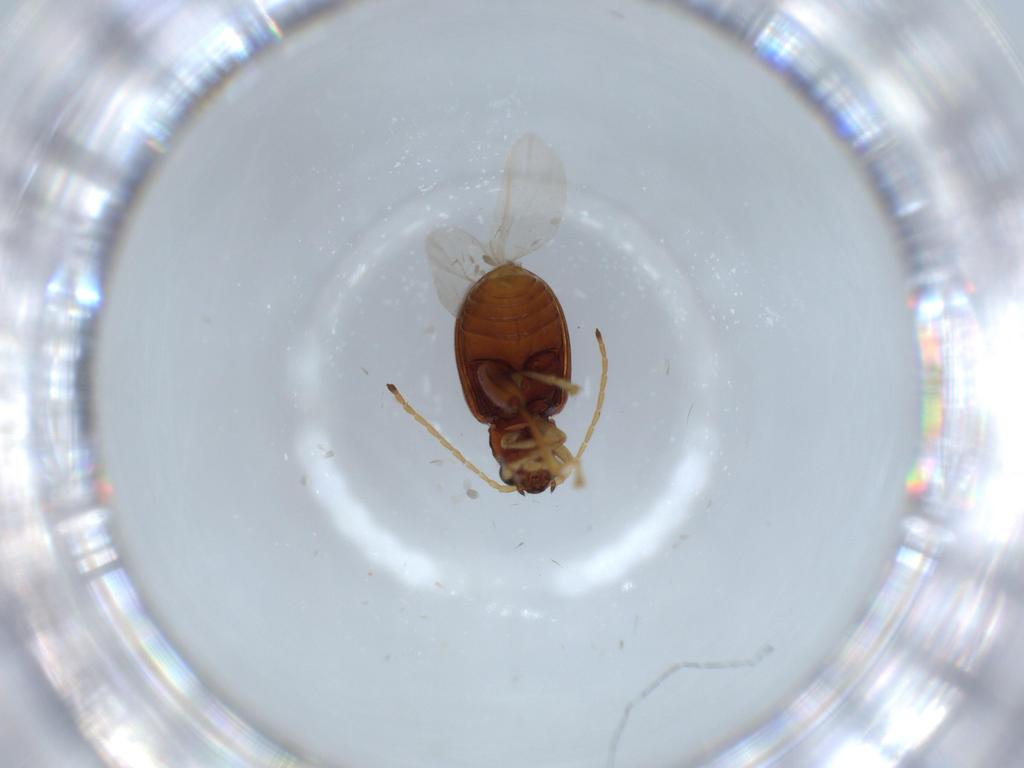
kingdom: Animalia
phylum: Arthropoda
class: Insecta
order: Coleoptera
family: Chrysomelidae
